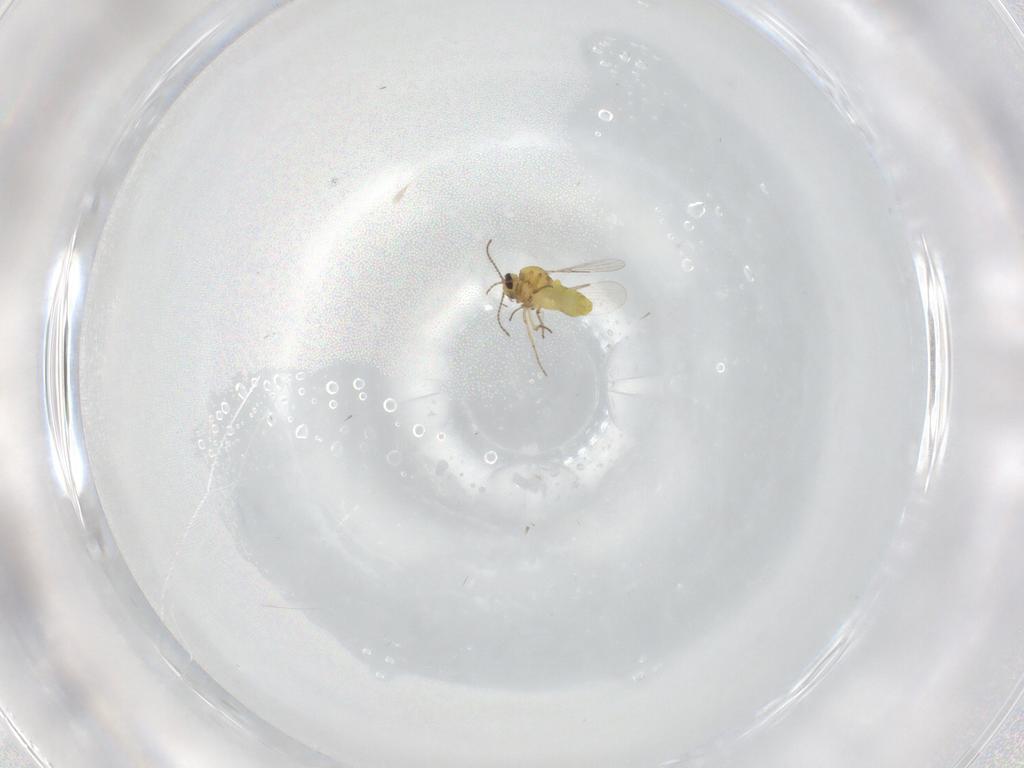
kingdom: Animalia
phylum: Arthropoda
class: Insecta
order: Diptera
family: Ceratopogonidae
